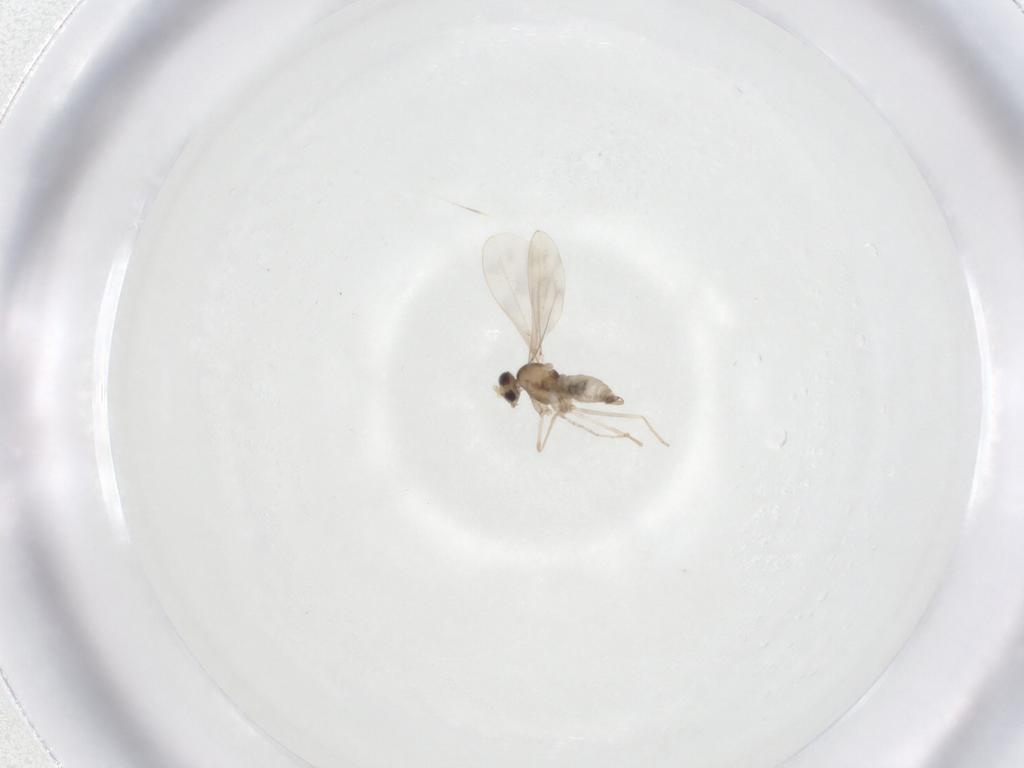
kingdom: Animalia
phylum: Arthropoda
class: Insecta
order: Diptera
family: Cecidomyiidae
